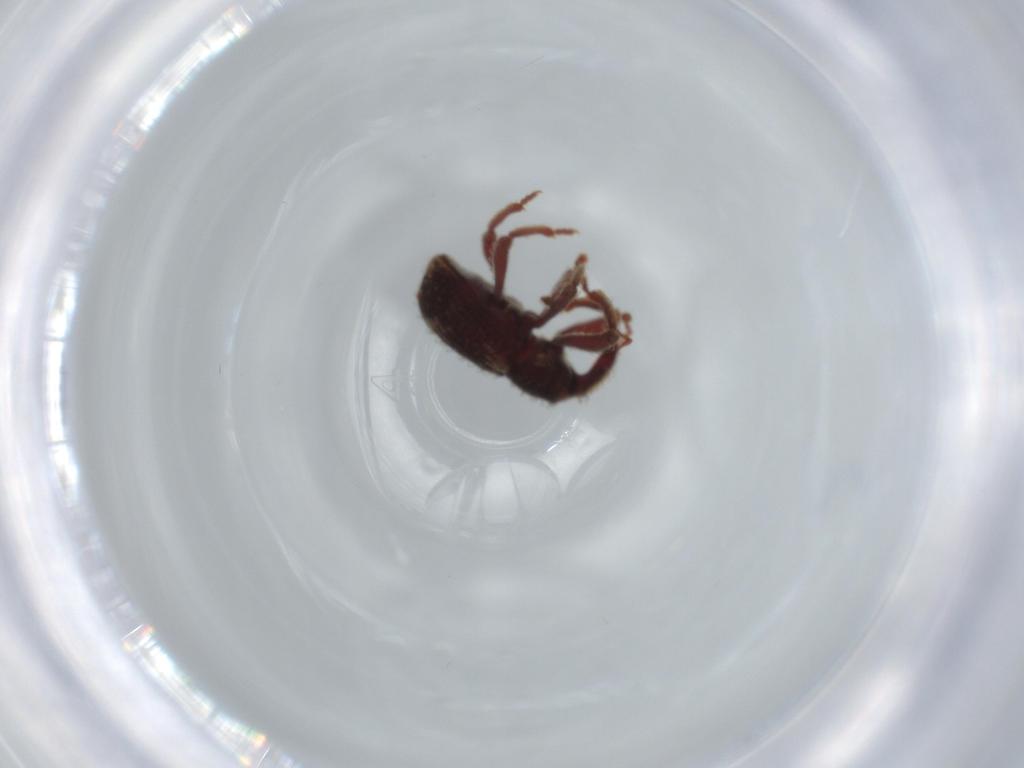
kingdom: Animalia
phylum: Arthropoda
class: Insecta
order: Coleoptera
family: Curculionidae
